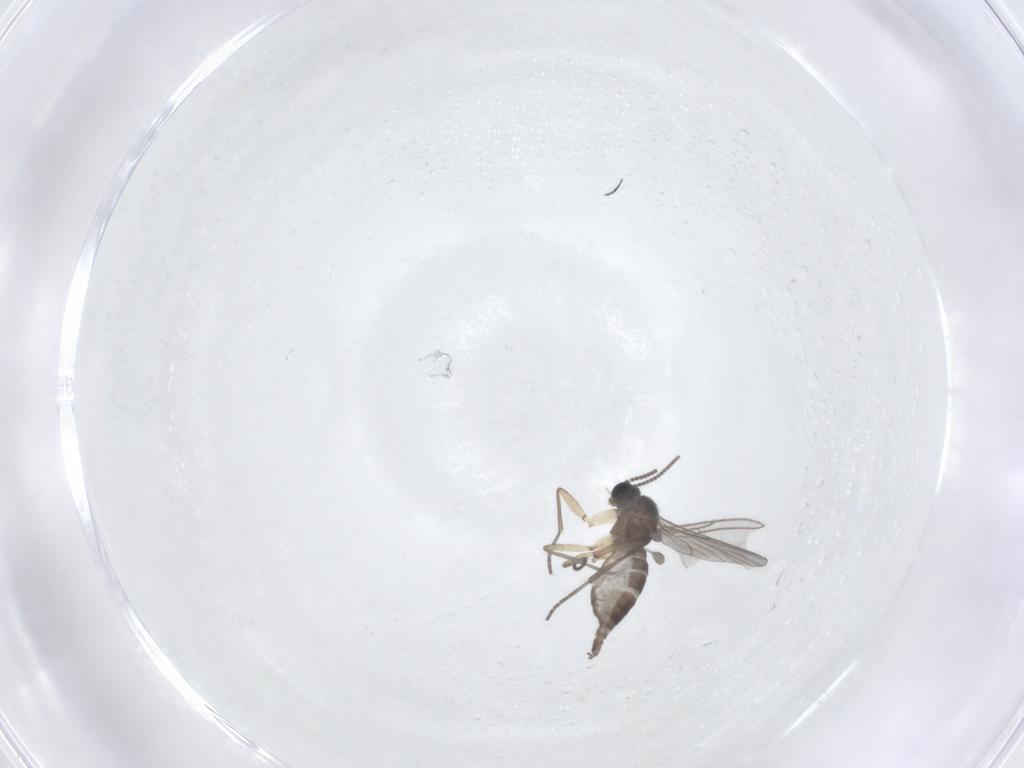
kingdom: Animalia
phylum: Arthropoda
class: Insecta
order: Diptera
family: Sciaridae
